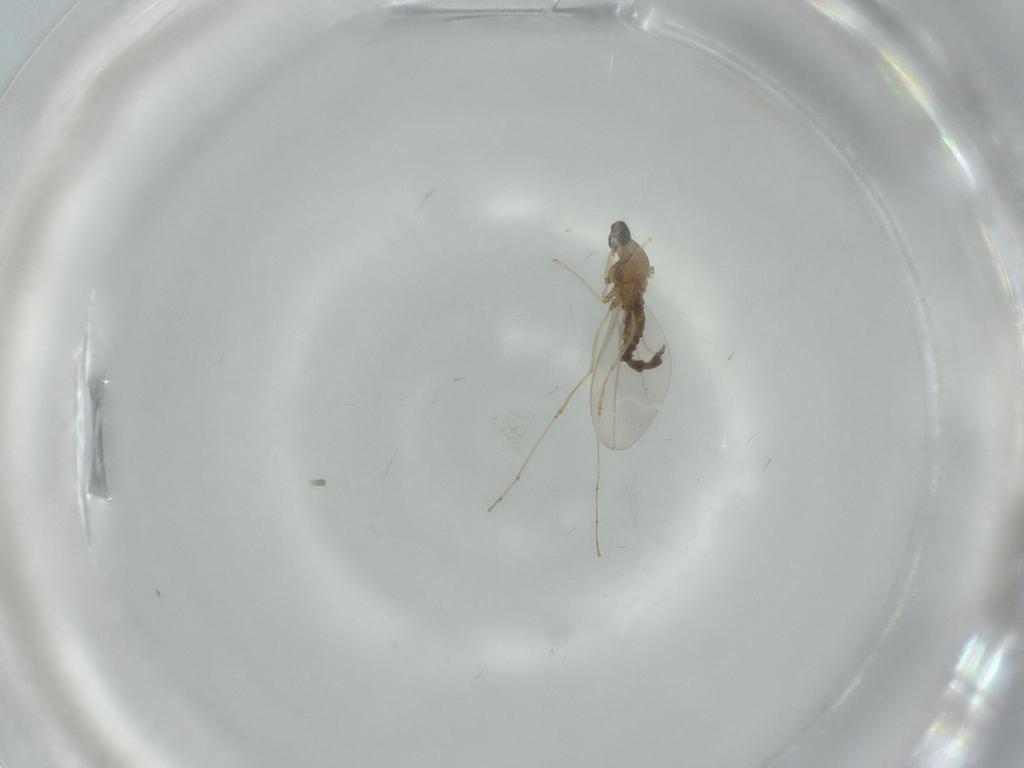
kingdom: Animalia
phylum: Arthropoda
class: Insecta
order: Diptera
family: Cecidomyiidae
